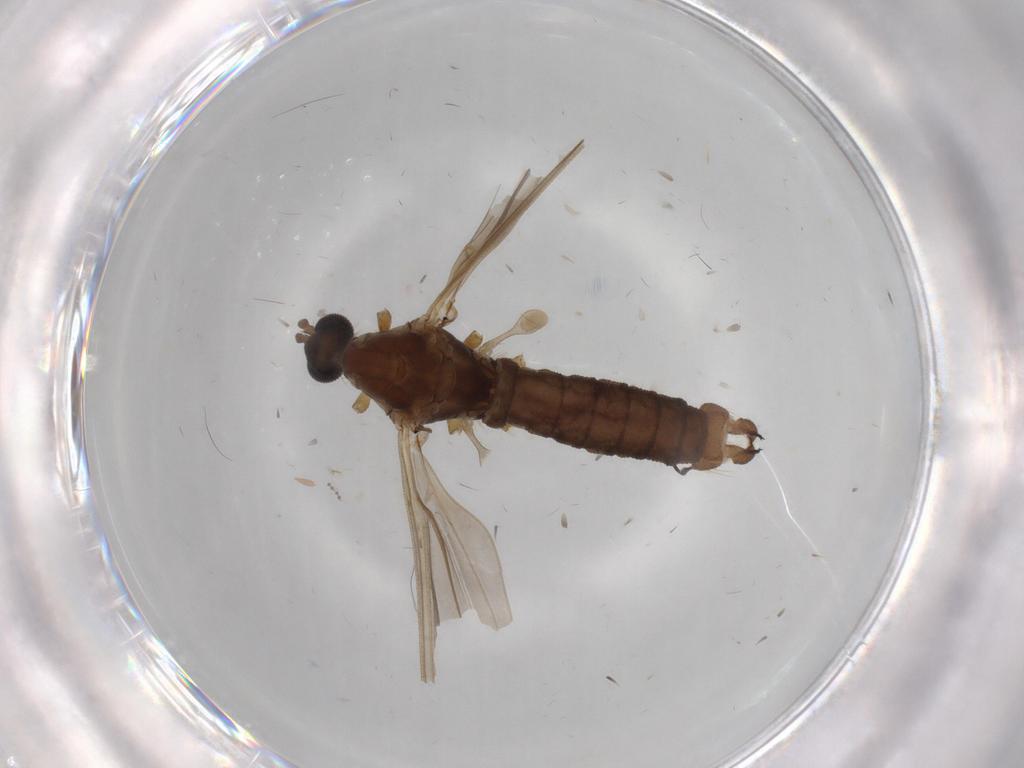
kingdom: Animalia
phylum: Arthropoda
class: Insecta
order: Diptera
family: Limoniidae
